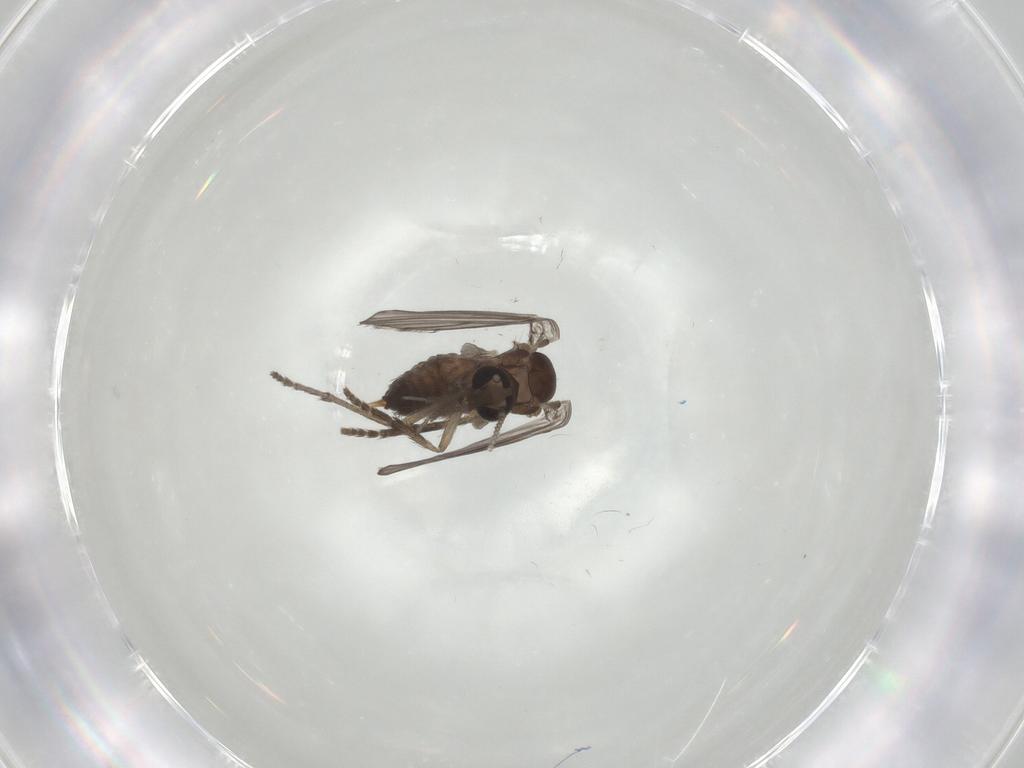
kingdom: Animalia
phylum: Arthropoda
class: Insecta
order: Diptera
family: Psychodidae
